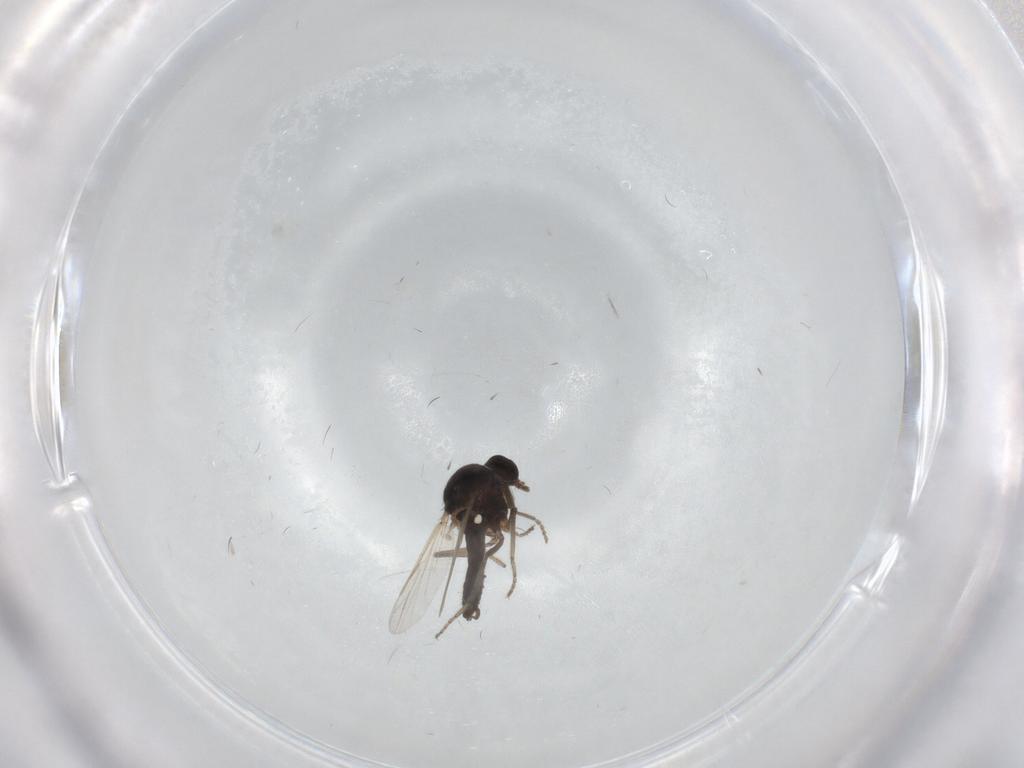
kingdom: Animalia
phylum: Arthropoda
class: Insecta
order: Diptera
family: Ceratopogonidae
